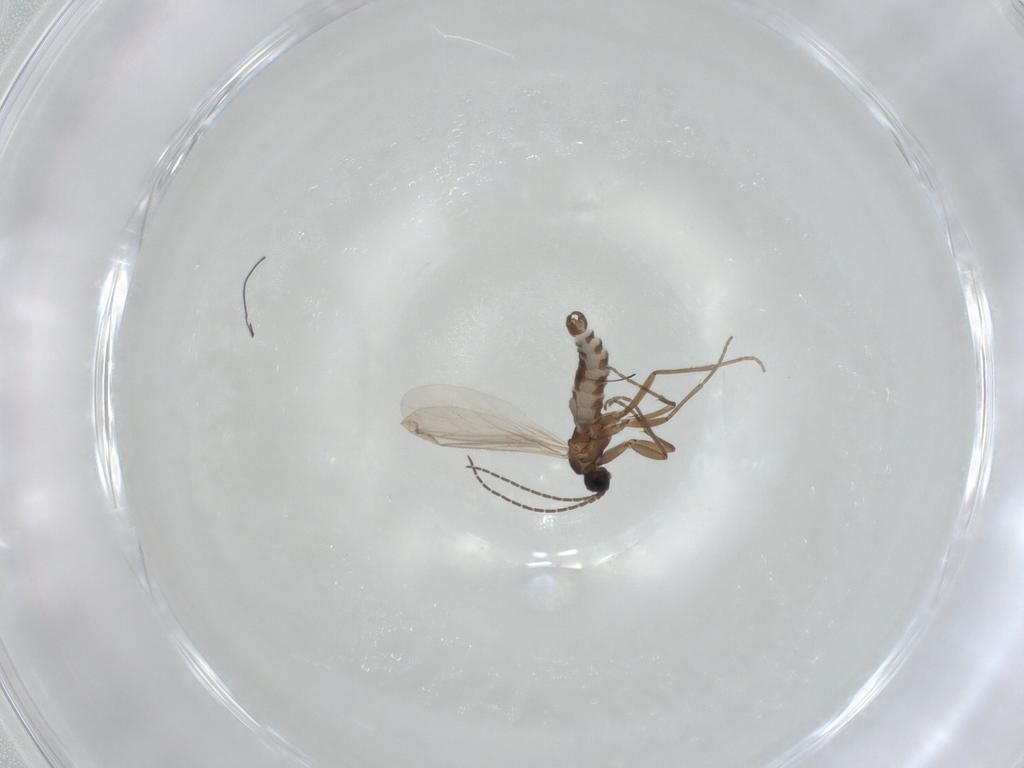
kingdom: Animalia
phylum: Arthropoda
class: Insecta
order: Diptera
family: Sciaridae
